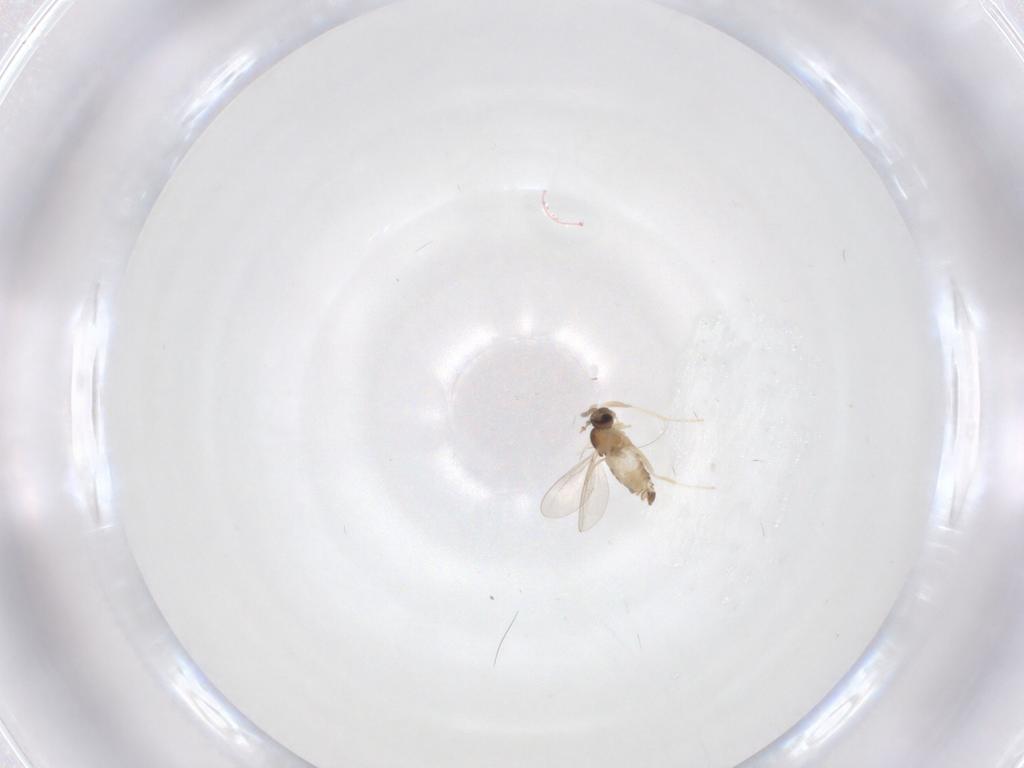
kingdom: Animalia
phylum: Arthropoda
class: Insecta
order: Diptera
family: Cecidomyiidae
